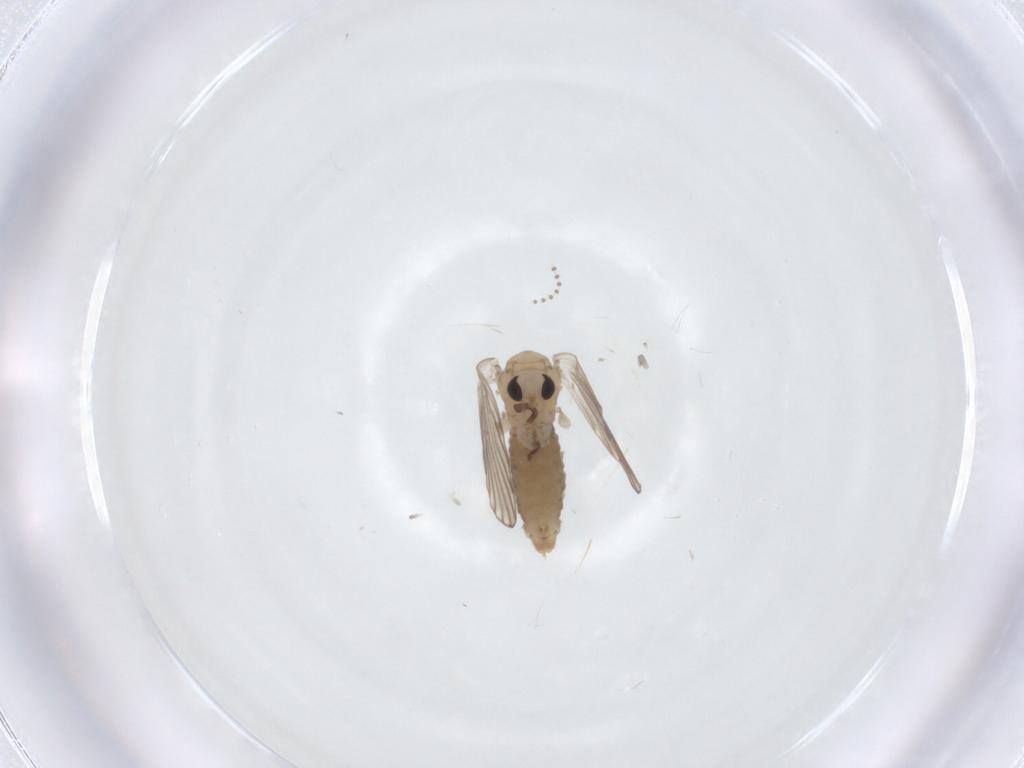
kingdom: Animalia
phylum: Arthropoda
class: Insecta
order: Diptera
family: Psychodidae
